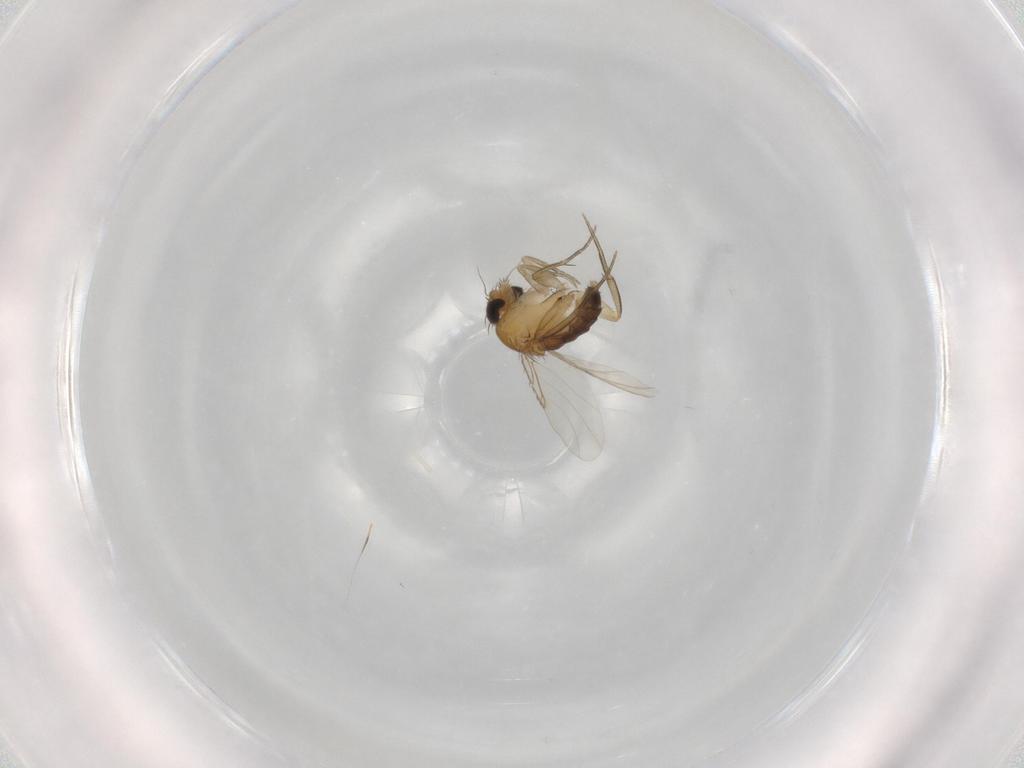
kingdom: Animalia
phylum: Arthropoda
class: Insecta
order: Diptera
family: Phoridae
